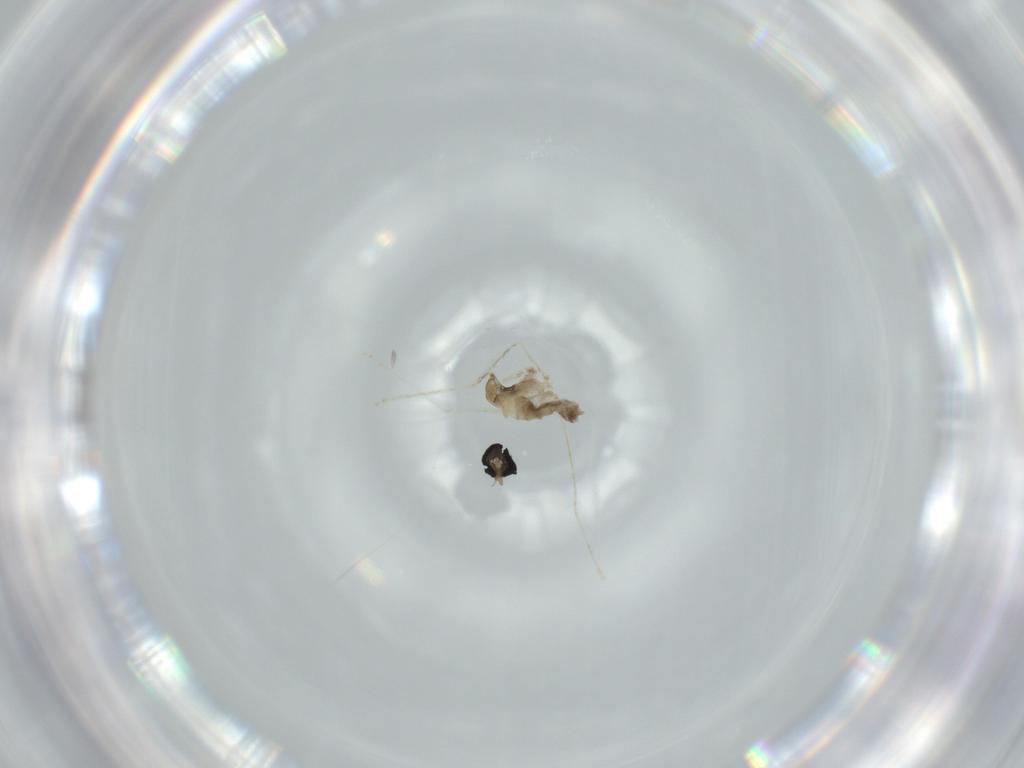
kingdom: Animalia
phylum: Arthropoda
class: Insecta
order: Diptera
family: Cecidomyiidae
